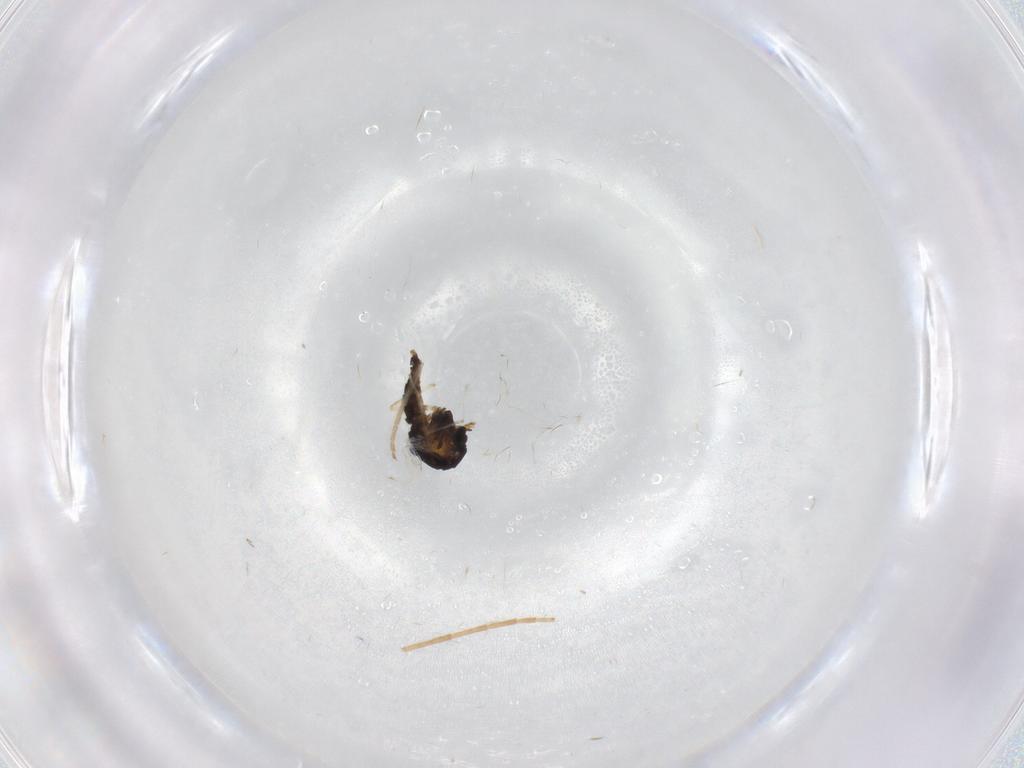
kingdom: Animalia
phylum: Arthropoda
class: Insecta
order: Diptera
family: Chironomidae
